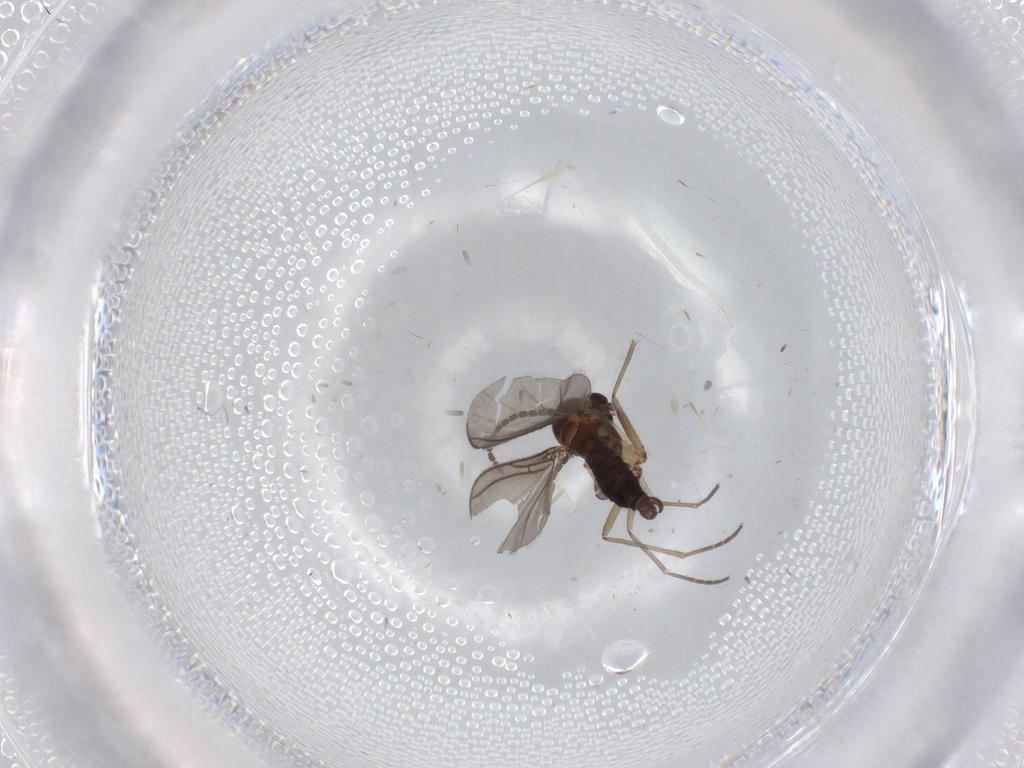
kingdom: Animalia
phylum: Arthropoda
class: Insecta
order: Diptera
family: Sciaridae
